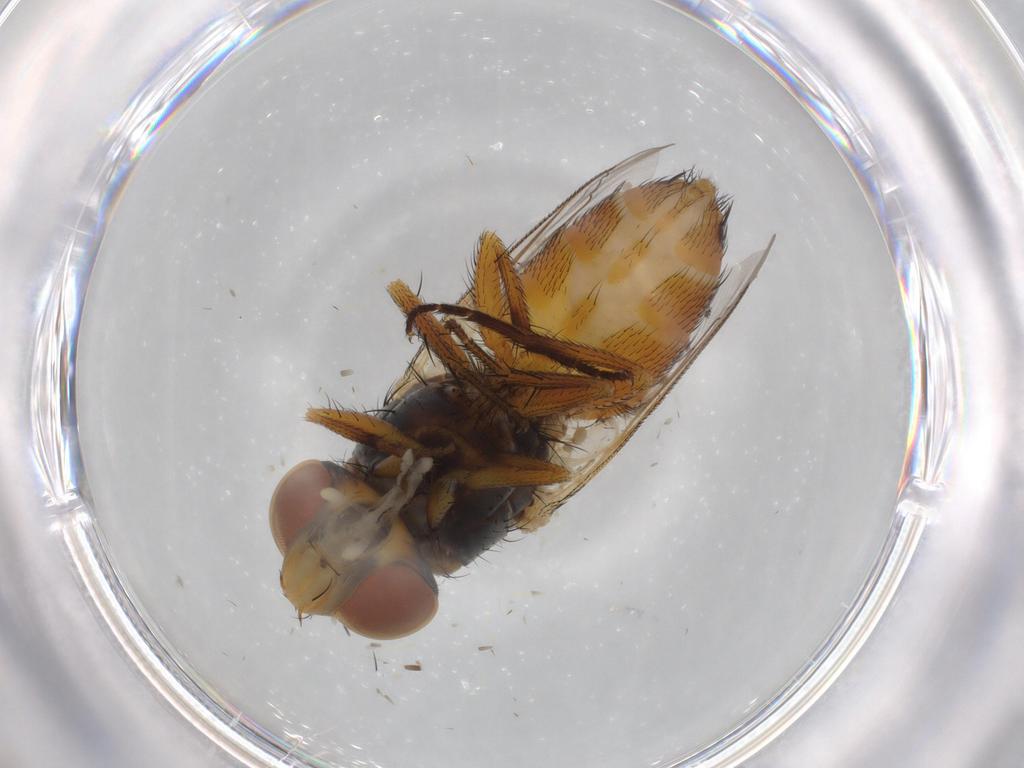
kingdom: Animalia
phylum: Arthropoda
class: Insecta
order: Diptera
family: Sarcophagidae
